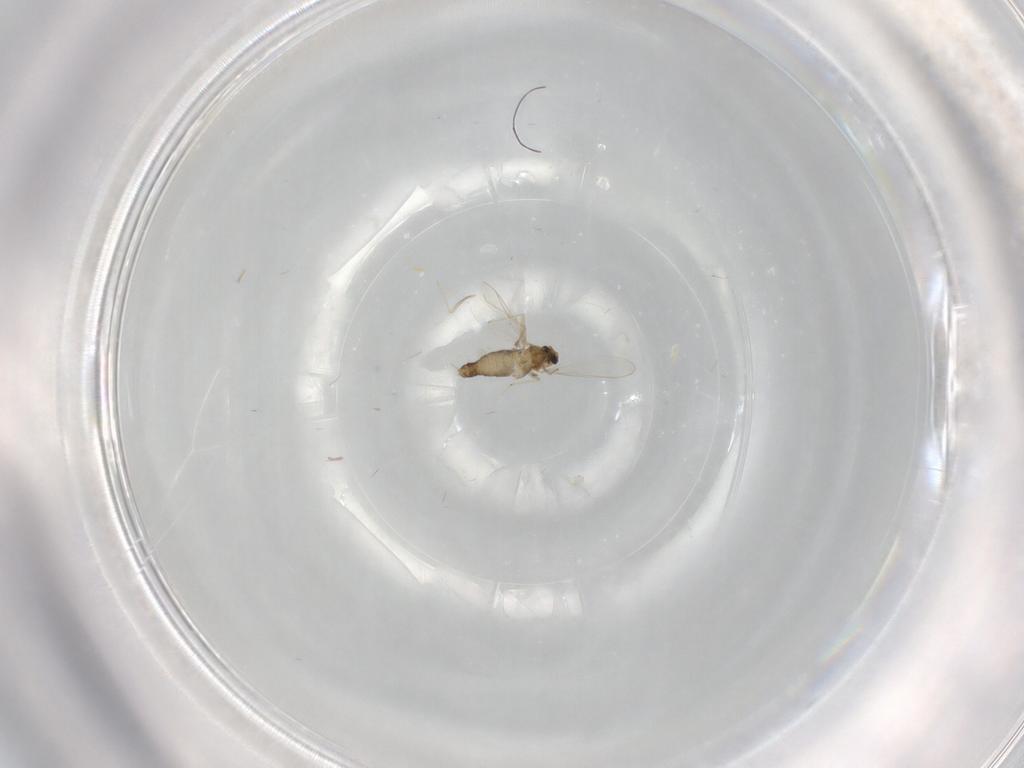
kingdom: Animalia
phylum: Arthropoda
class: Insecta
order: Diptera
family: Chironomidae
